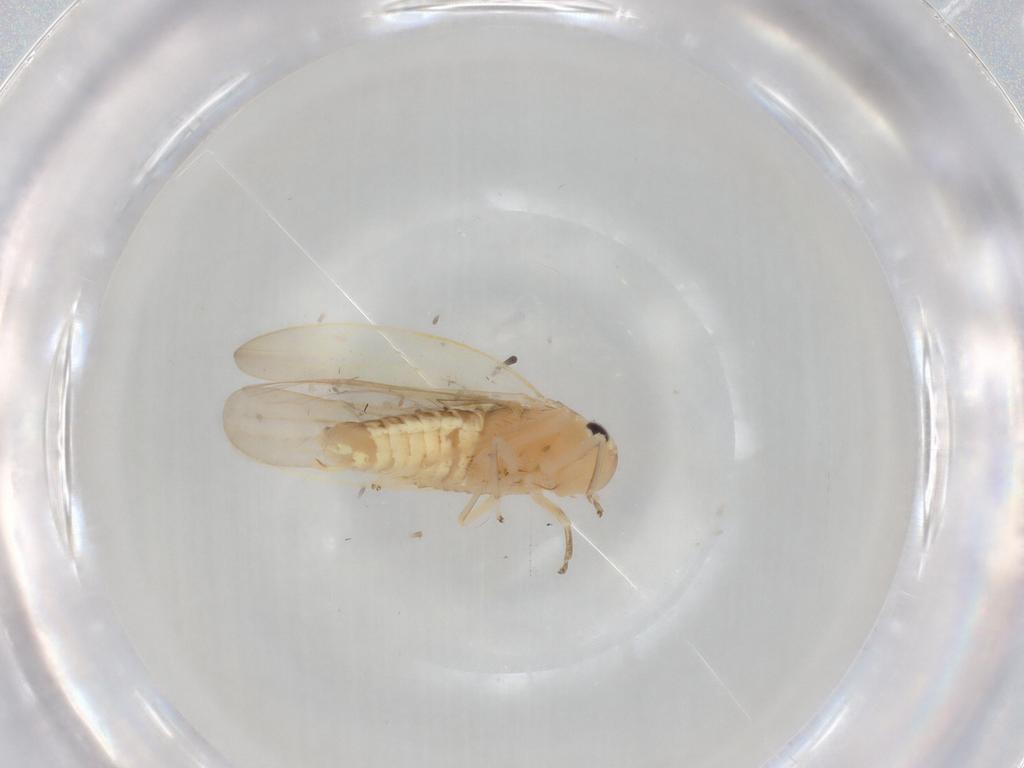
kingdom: Animalia
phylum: Arthropoda
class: Insecta
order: Hemiptera
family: Cicadellidae
